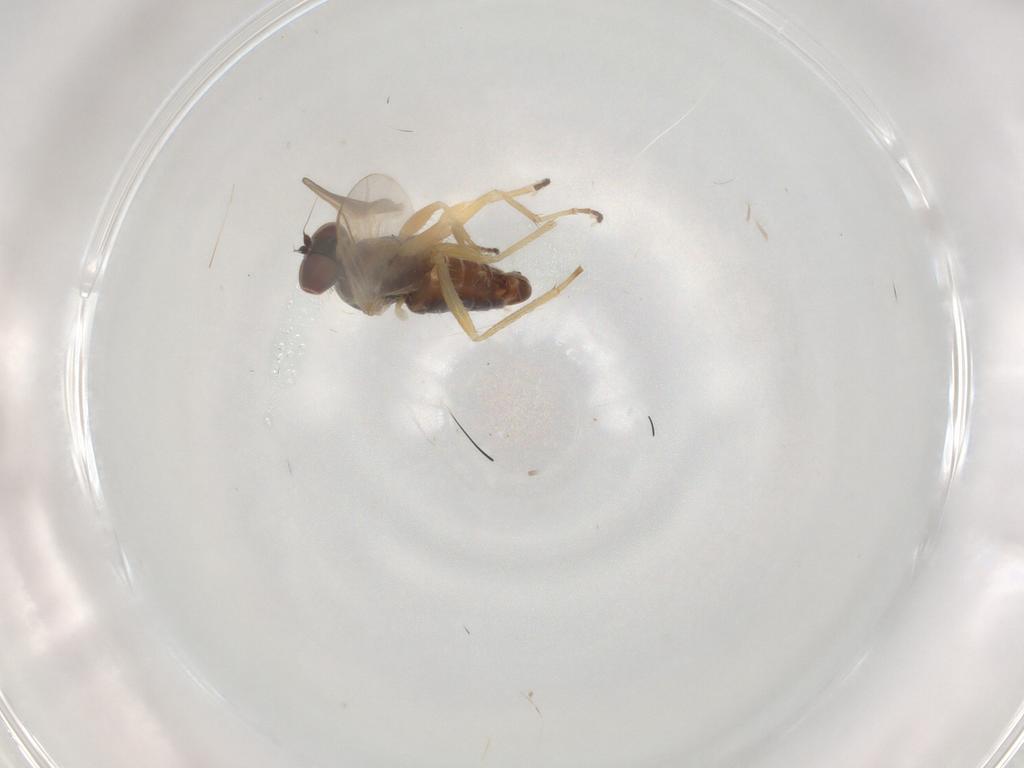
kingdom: Animalia
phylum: Arthropoda
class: Insecta
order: Diptera
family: Dolichopodidae
